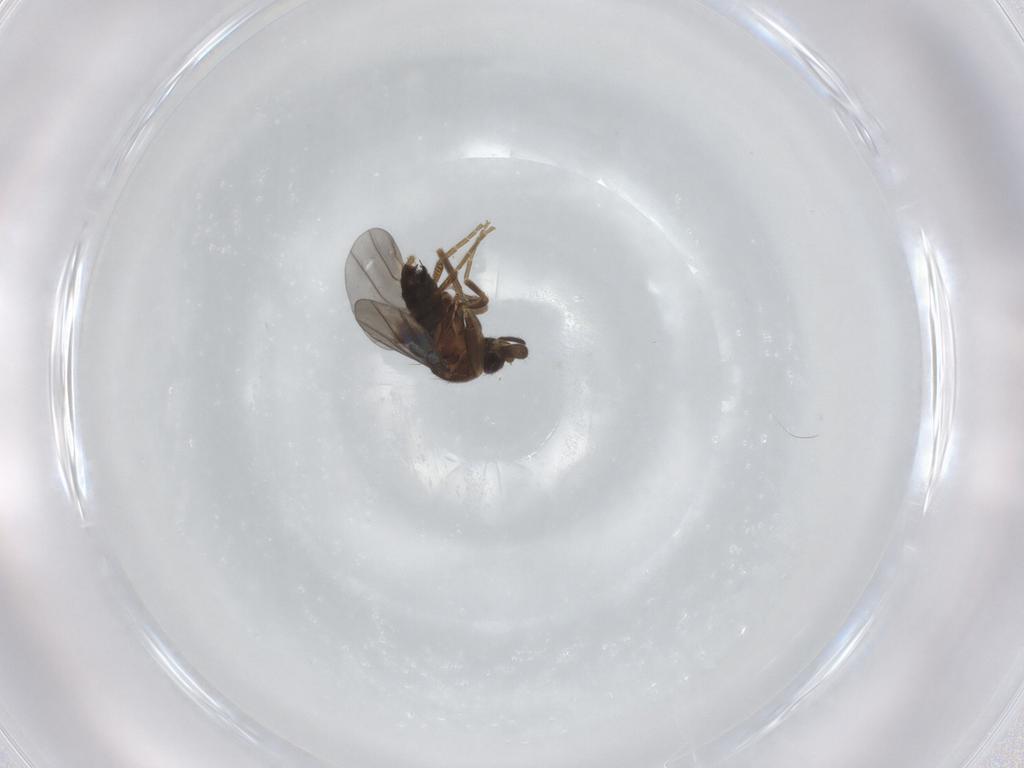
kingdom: Animalia
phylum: Arthropoda
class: Insecta
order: Diptera
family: Phoridae
